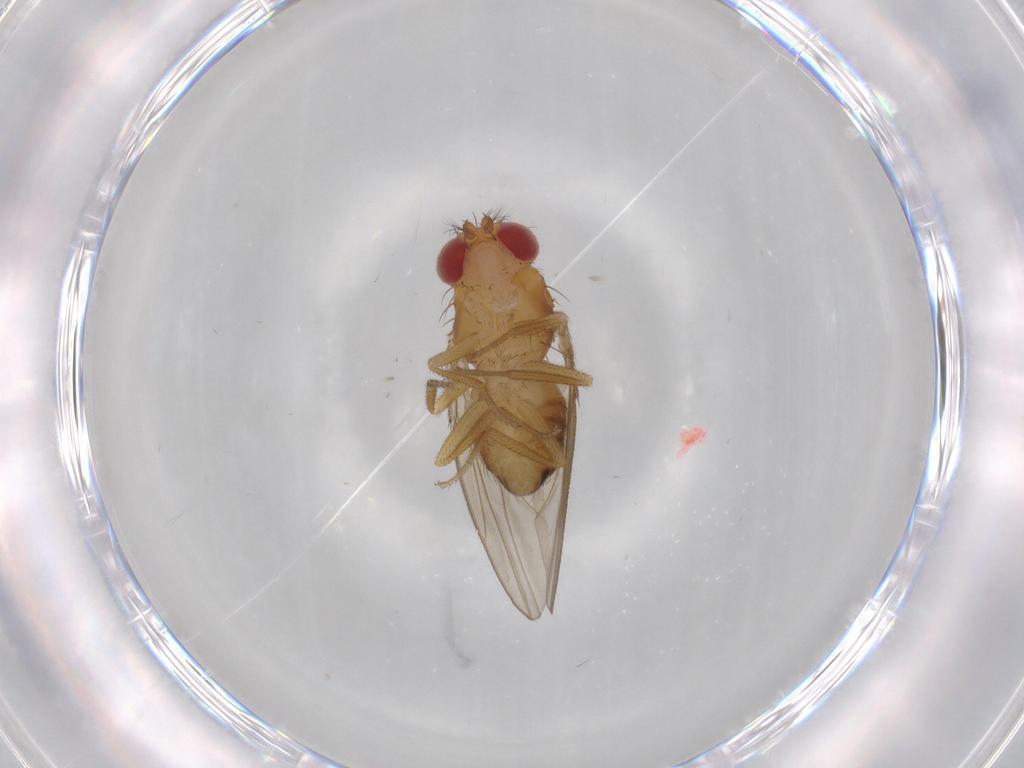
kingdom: Animalia
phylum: Arthropoda
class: Insecta
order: Diptera
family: Drosophilidae
